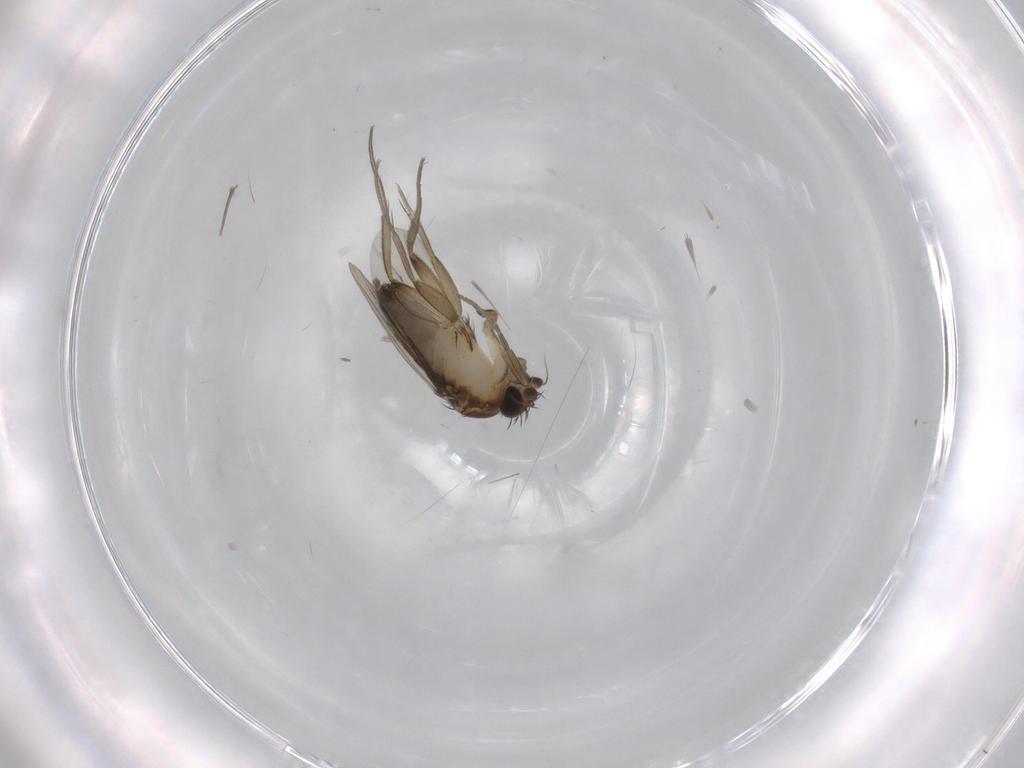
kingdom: Animalia
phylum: Arthropoda
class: Insecta
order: Diptera
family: Phoridae
